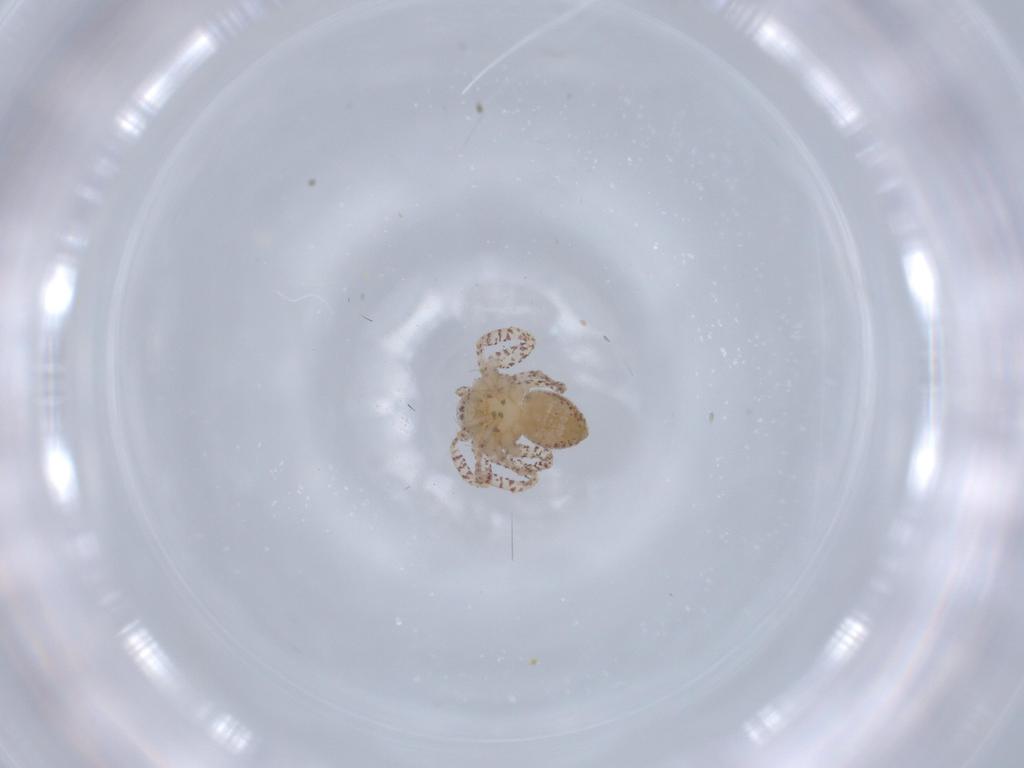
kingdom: Animalia
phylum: Arthropoda
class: Arachnida
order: Araneae
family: Philodromidae
